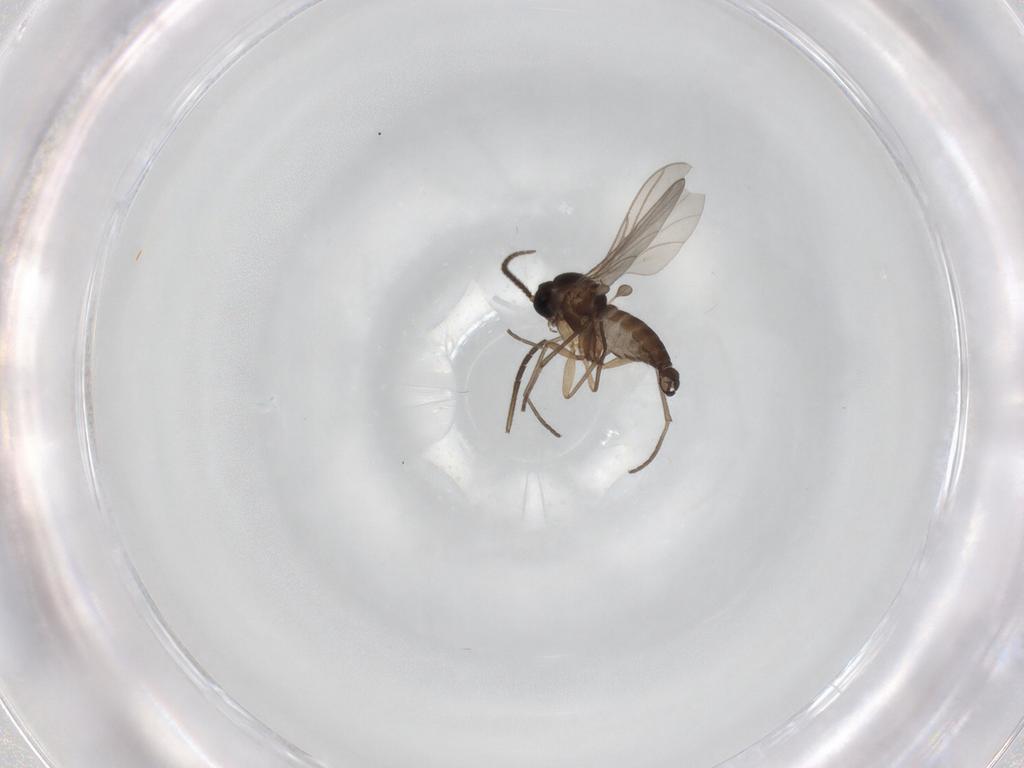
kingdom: Animalia
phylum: Arthropoda
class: Insecta
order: Diptera
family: Sciaridae
